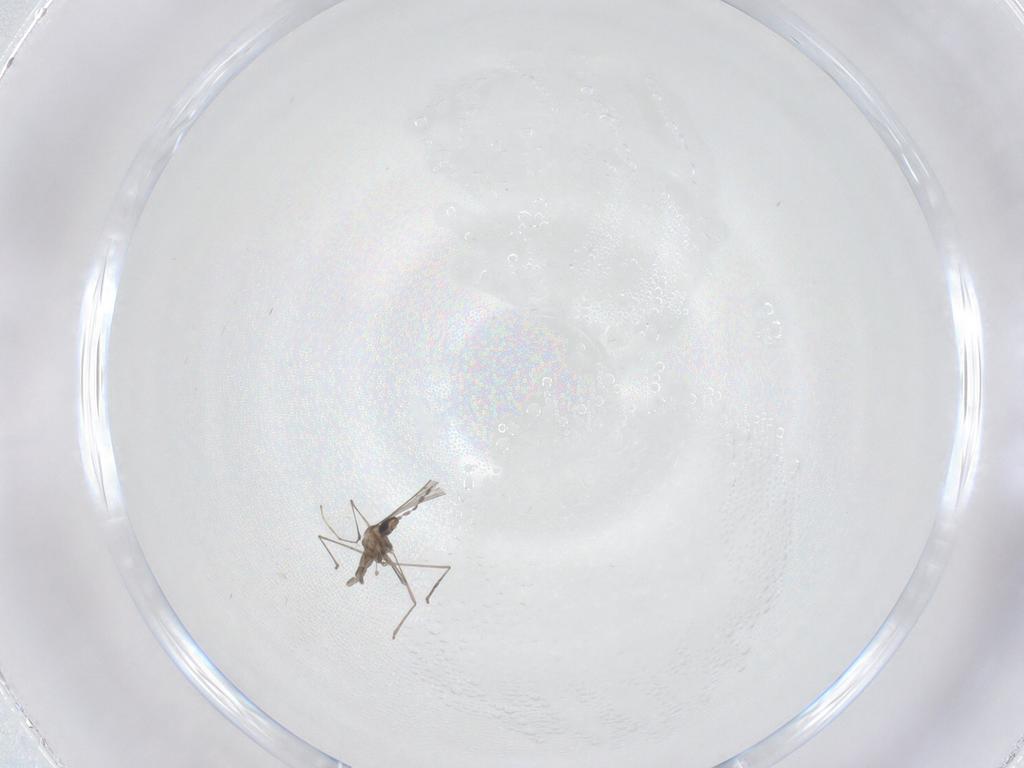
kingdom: Animalia
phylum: Arthropoda
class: Insecta
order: Diptera
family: Cecidomyiidae
